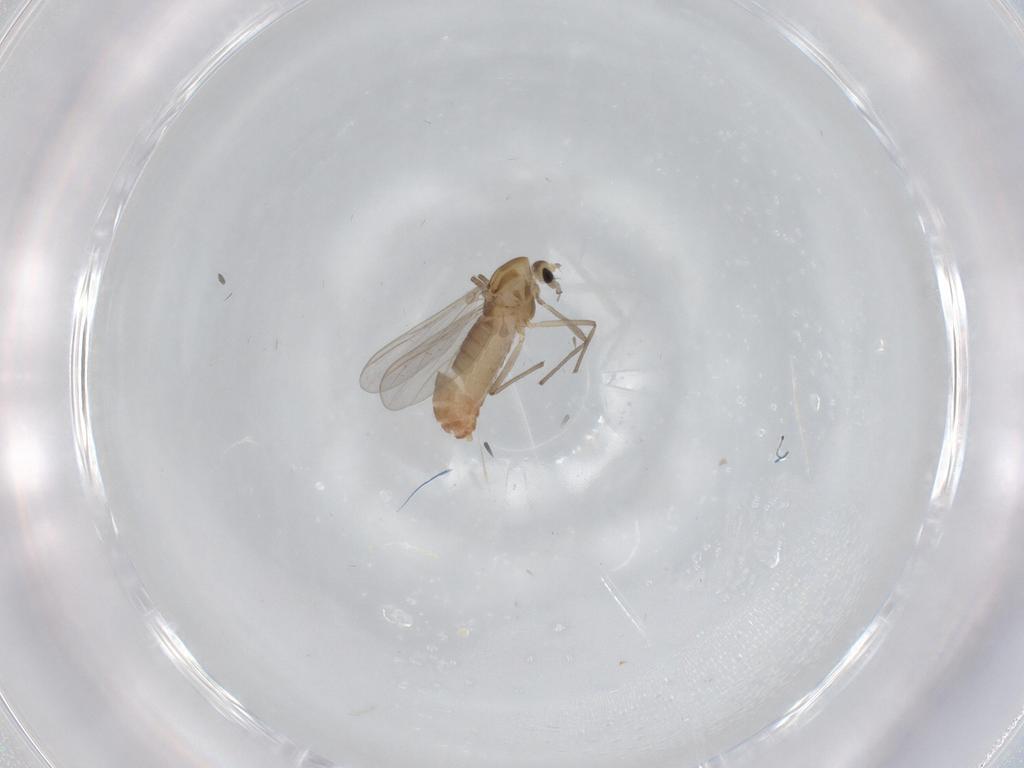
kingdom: Animalia
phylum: Arthropoda
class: Insecta
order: Diptera
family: Chironomidae
